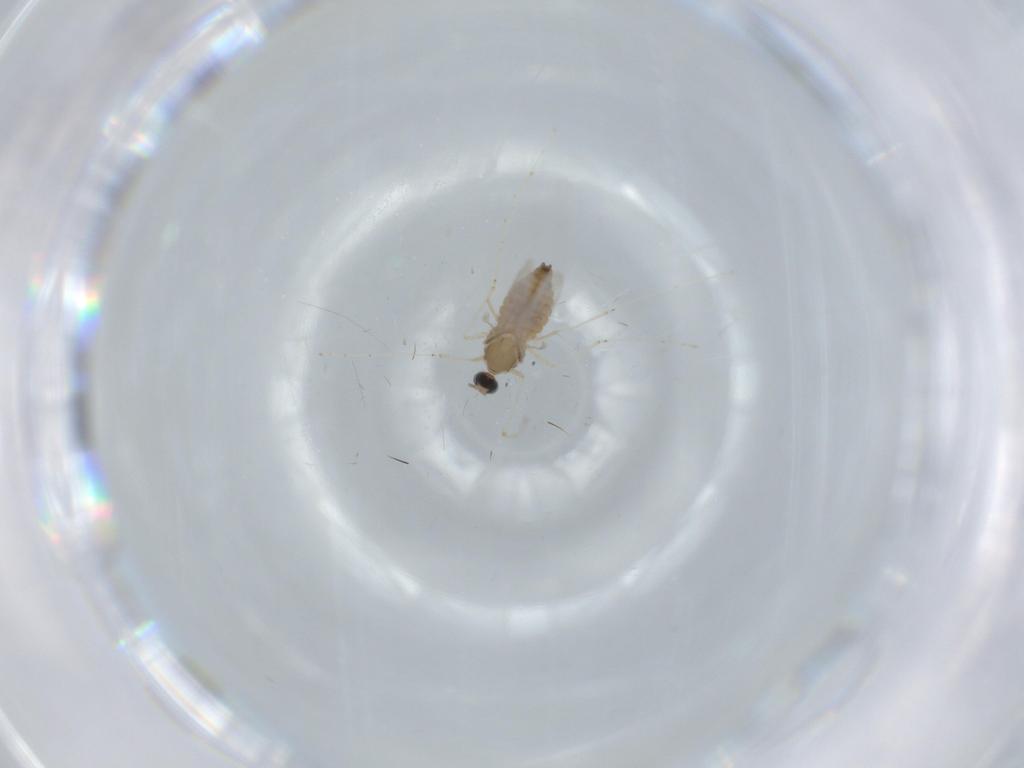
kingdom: Animalia
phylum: Arthropoda
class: Insecta
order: Diptera
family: Cecidomyiidae
